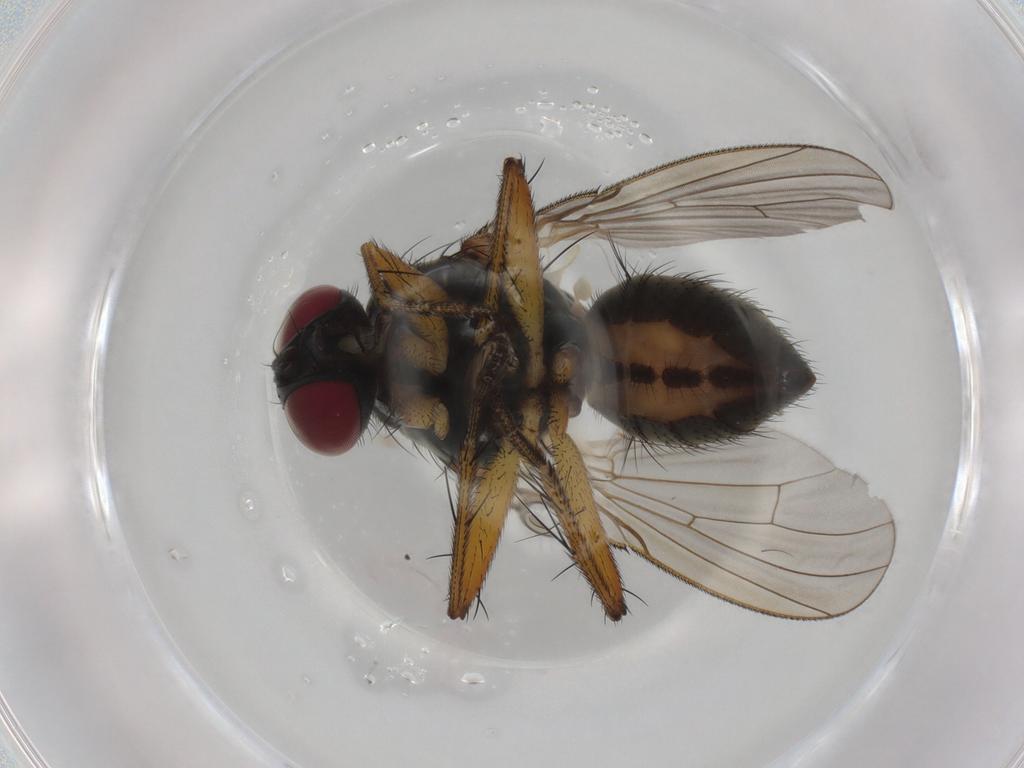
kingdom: Animalia
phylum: Arthropoda
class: Insecta
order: Diptera
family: Muscidae
